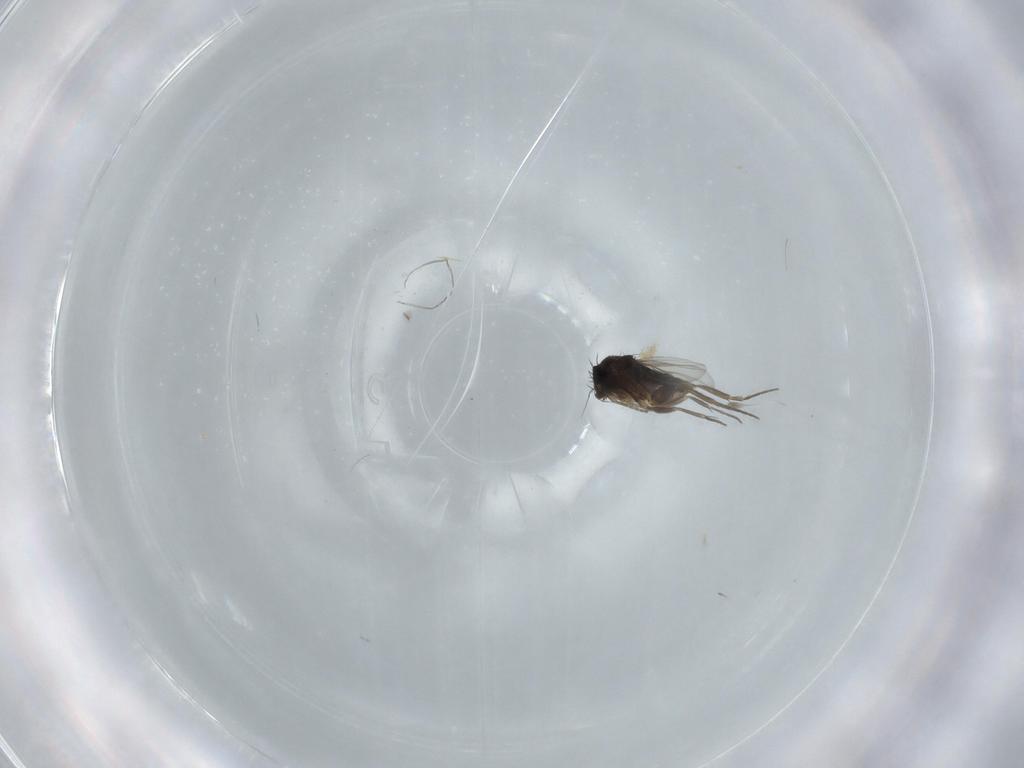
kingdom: Animalia
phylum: Arthropoda
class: Insecta
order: Diptera
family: Phoridae
